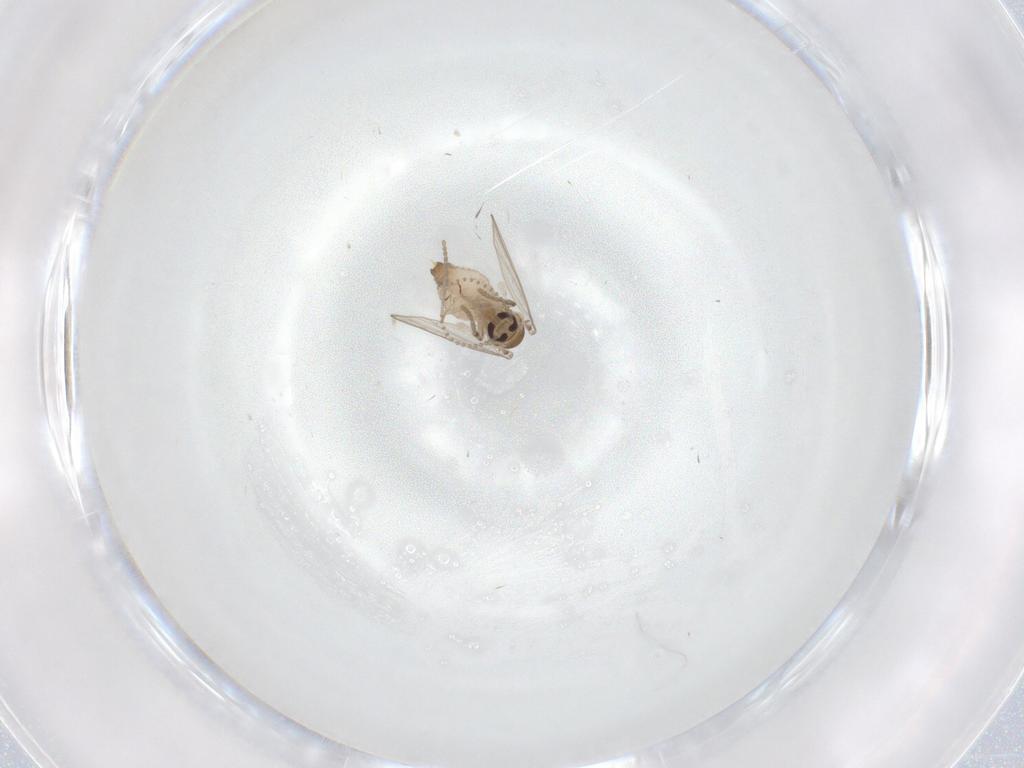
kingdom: Animalia
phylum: Arthropoda
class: Insecta
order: Diptera
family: Psychodidae
